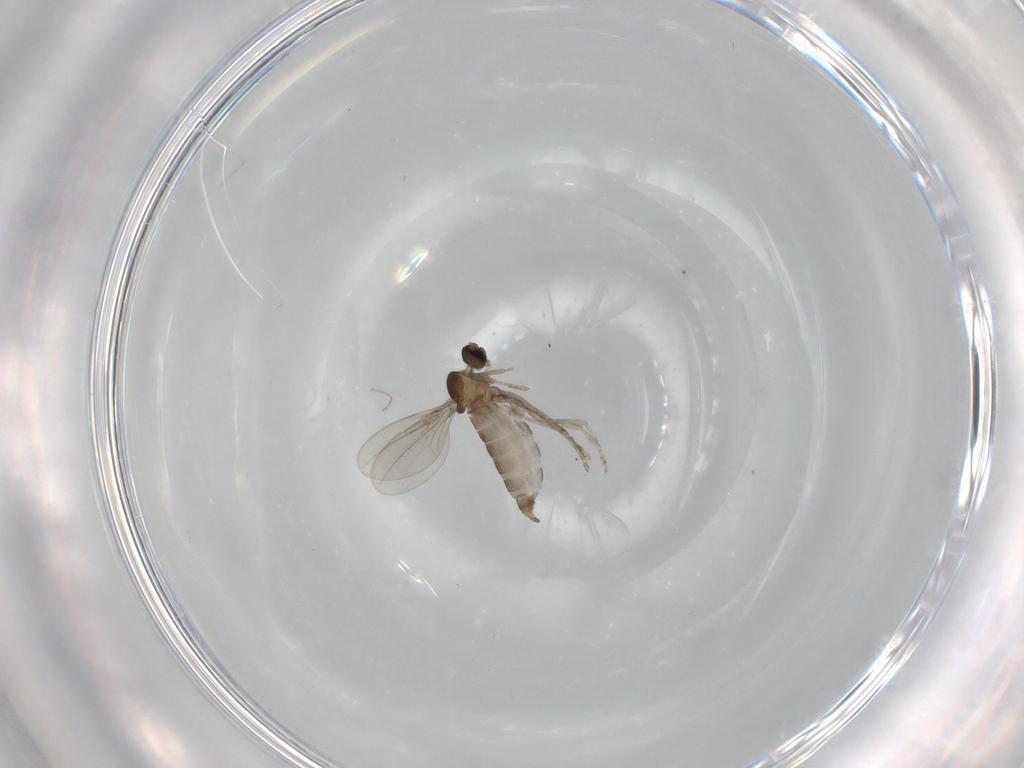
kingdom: Animalia
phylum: Arthropoda
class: Insecta
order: Diptera
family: Cecidomyiidae
